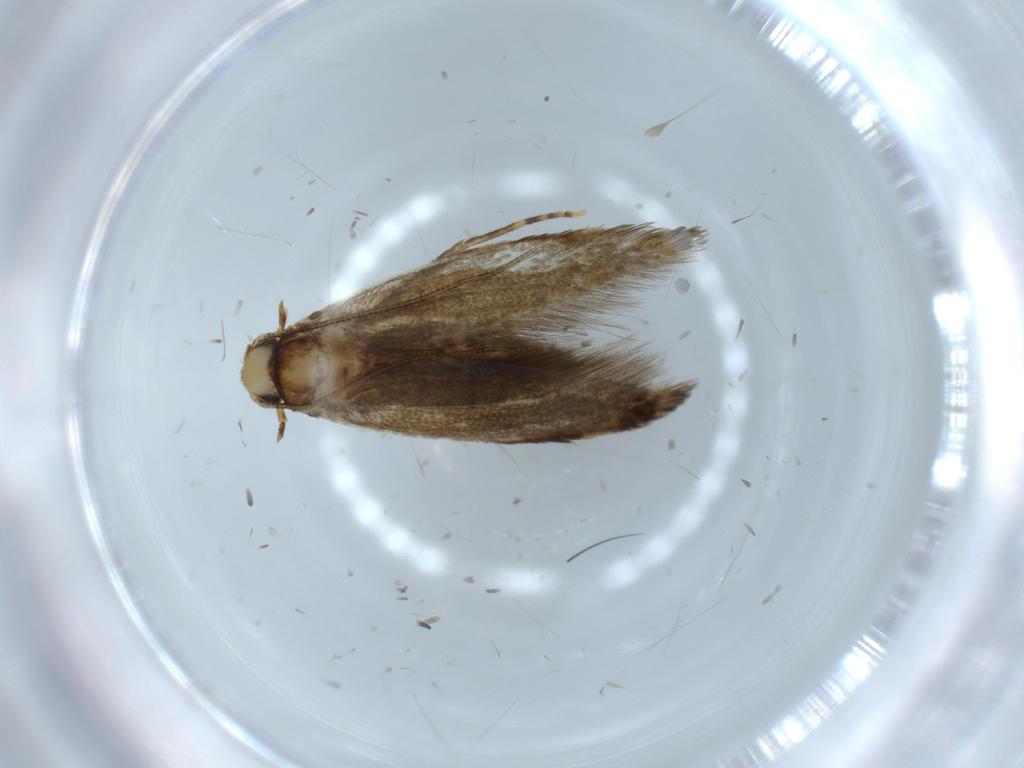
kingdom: Animalia
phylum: Arthropoda
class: Insecta
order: Lepidoptera
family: Tineidae
